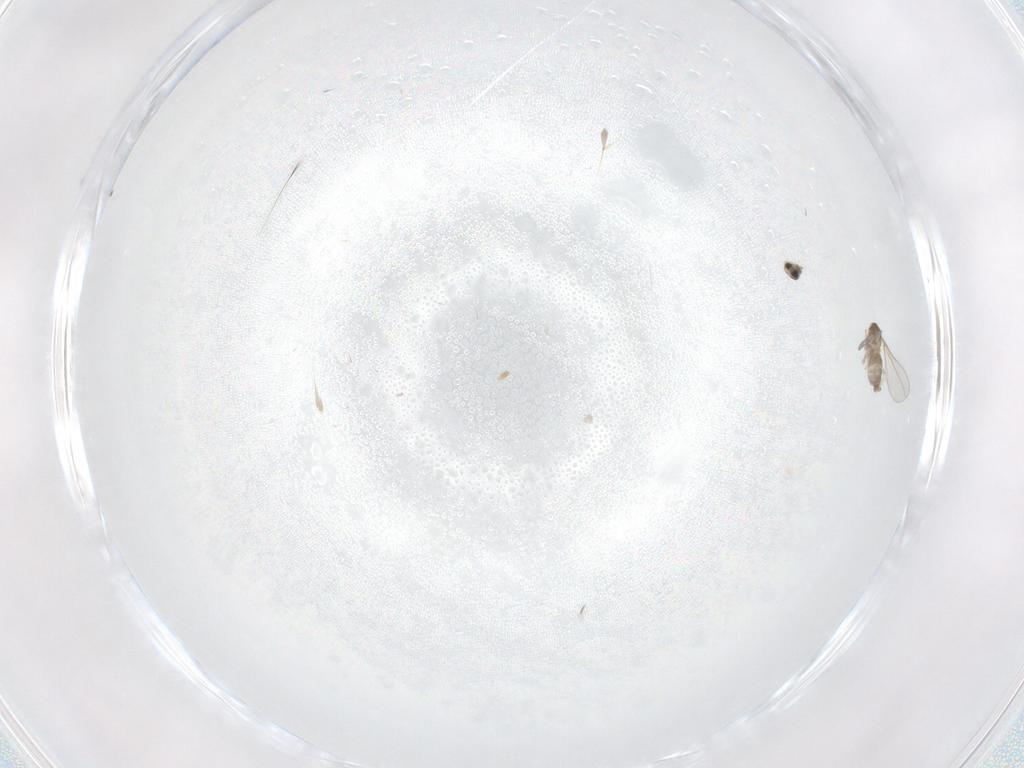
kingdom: Animalia
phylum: Arthropoda
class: Insecta
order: Diptera
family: Cecidomyiidae
